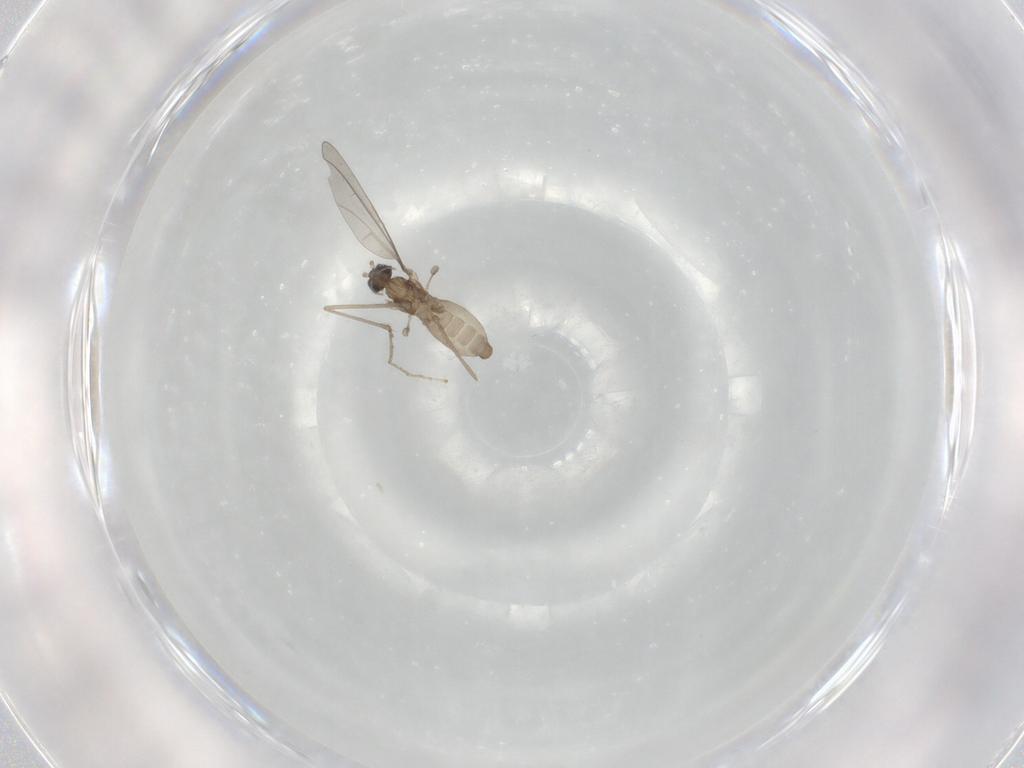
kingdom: Animalia
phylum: Arthropoda
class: Insecta
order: Diptera
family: Cecidomyiidae
